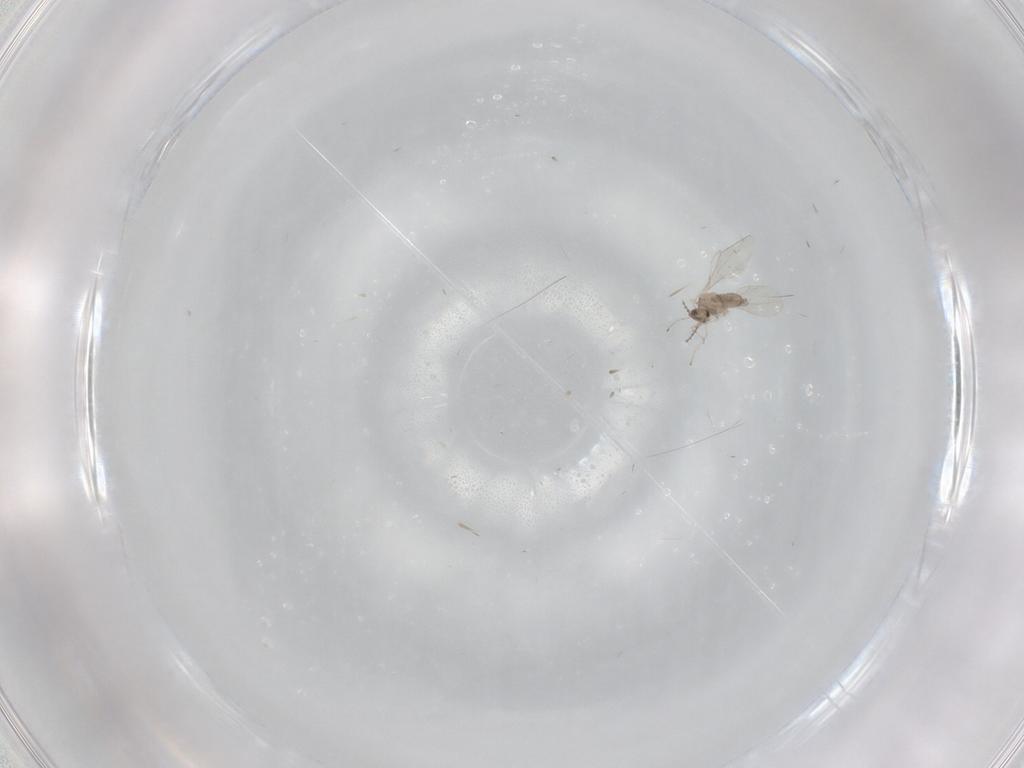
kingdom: Animalia
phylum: Arthropoda
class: Insecta
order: Diptera
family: Cecidomyiidae
